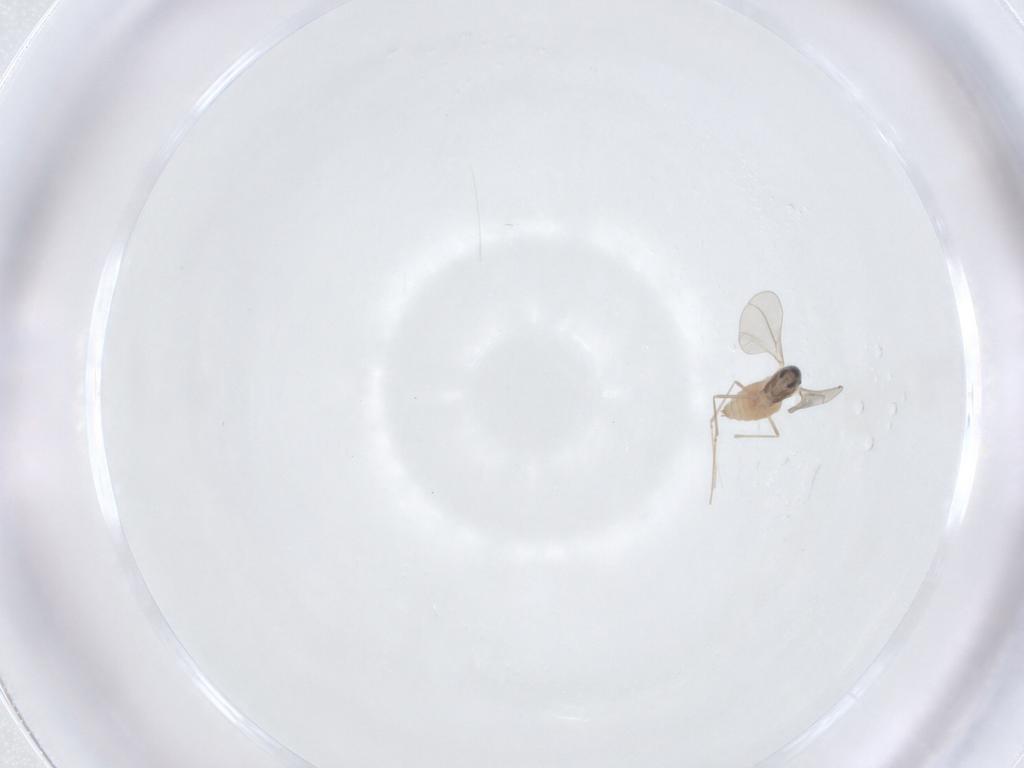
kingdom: Animalia
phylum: Arthropoda
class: Insecta
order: Diptera
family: Cecidomyiidae
